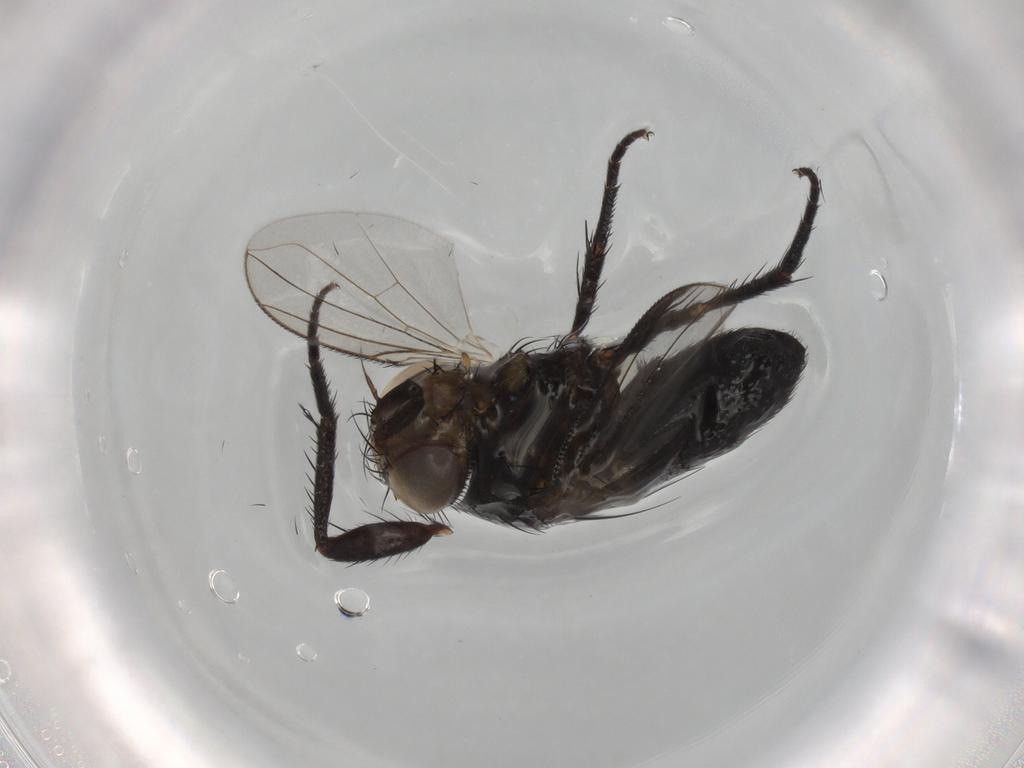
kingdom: Animalia
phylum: Arthropoda
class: Insecta
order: Diptera
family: Tachinidae
